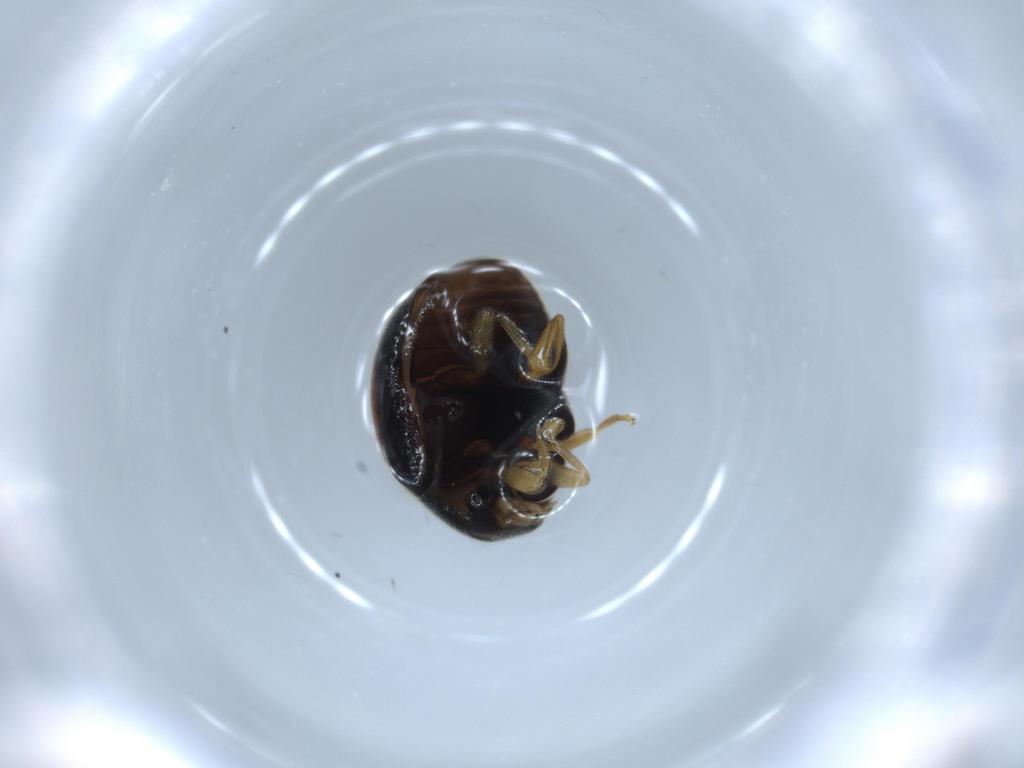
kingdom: Animalia
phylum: Arthropoda
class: Insecta
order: Coleoptera
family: Coccinellidae
